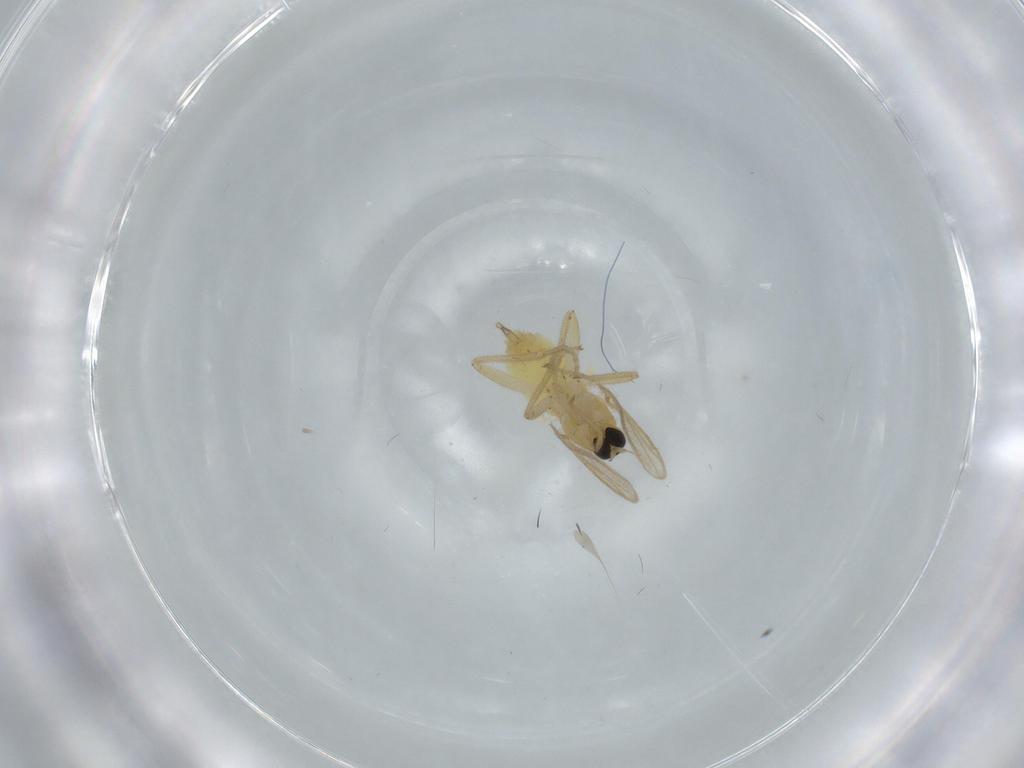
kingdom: Animalia
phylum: Arthropoda
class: Insecta
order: Diptera
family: Hybotidae
